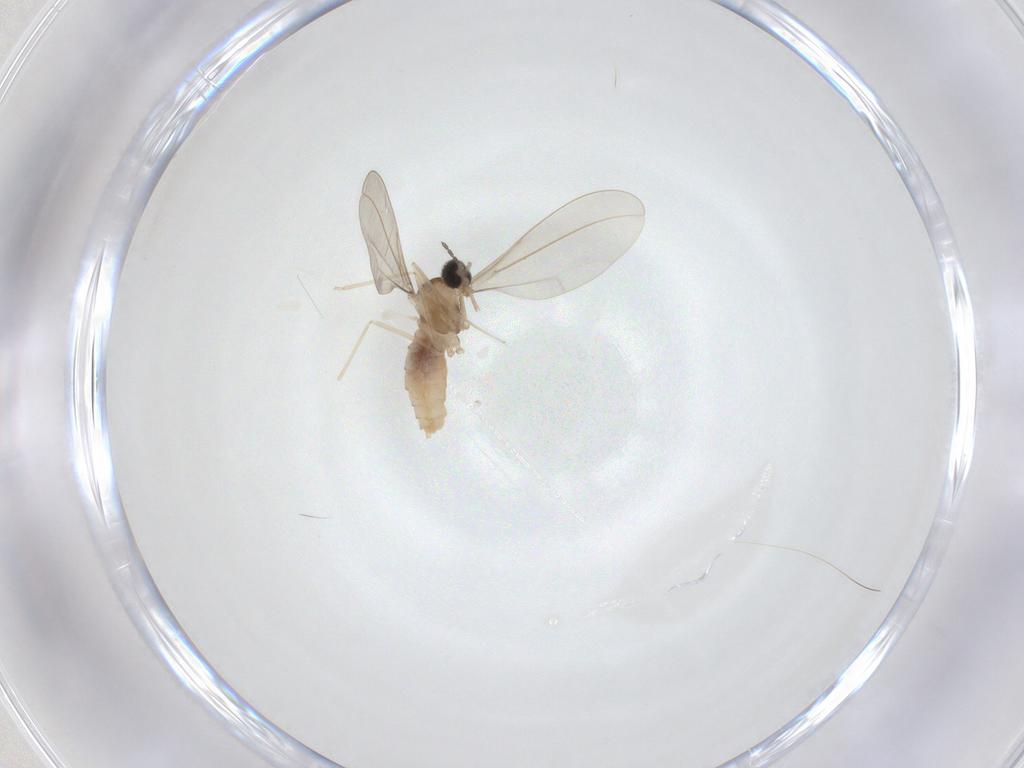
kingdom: Animalia
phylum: Arthropoda
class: Insecta
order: Diptera
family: Cecidomyiidae
